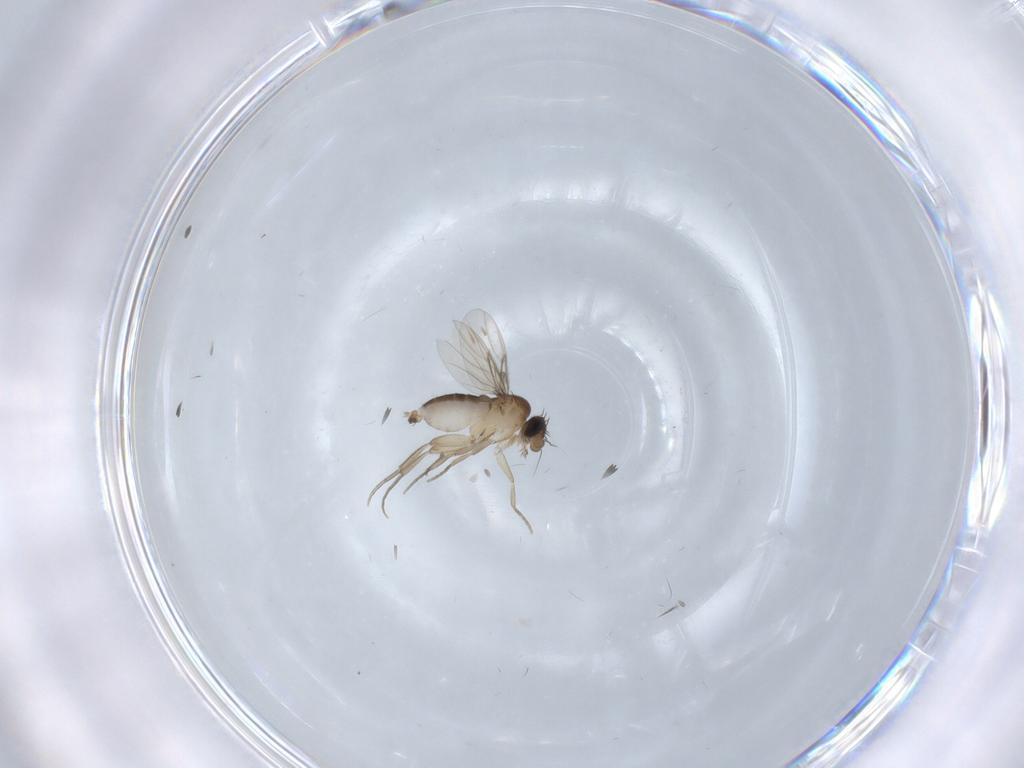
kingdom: Animalia
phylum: Arthropoda
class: Insecta
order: Diptera
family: Phoridae
